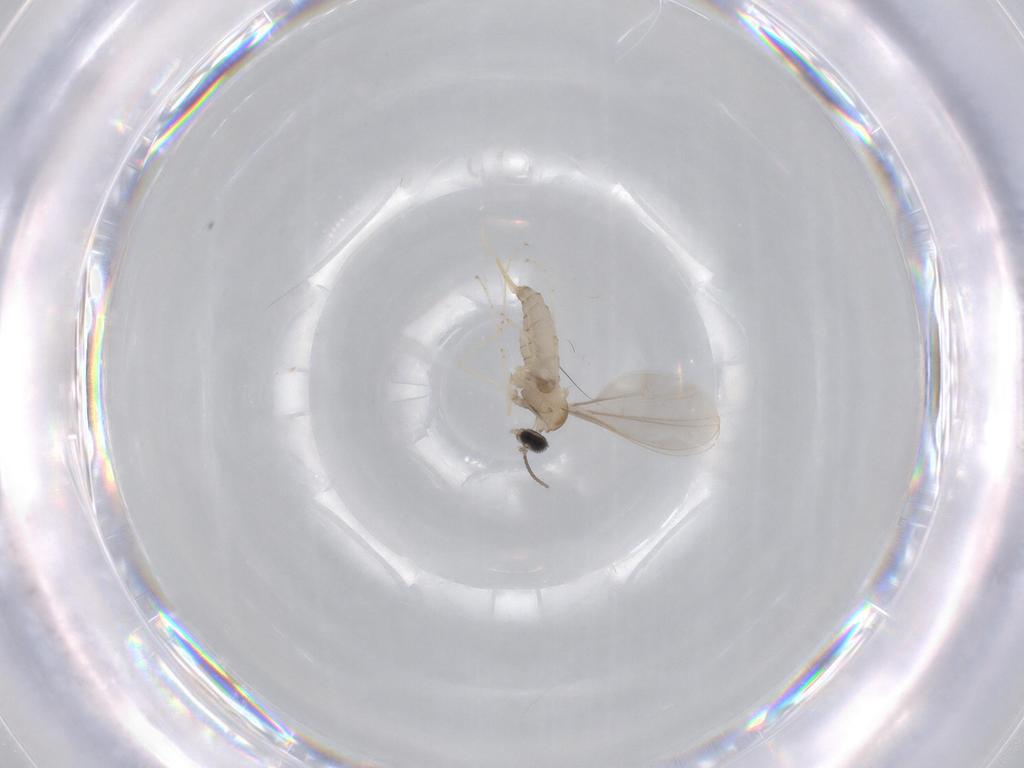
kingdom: Animalia
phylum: Arthropoda
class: Insecta
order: Diptera
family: Cecidomyiidae
